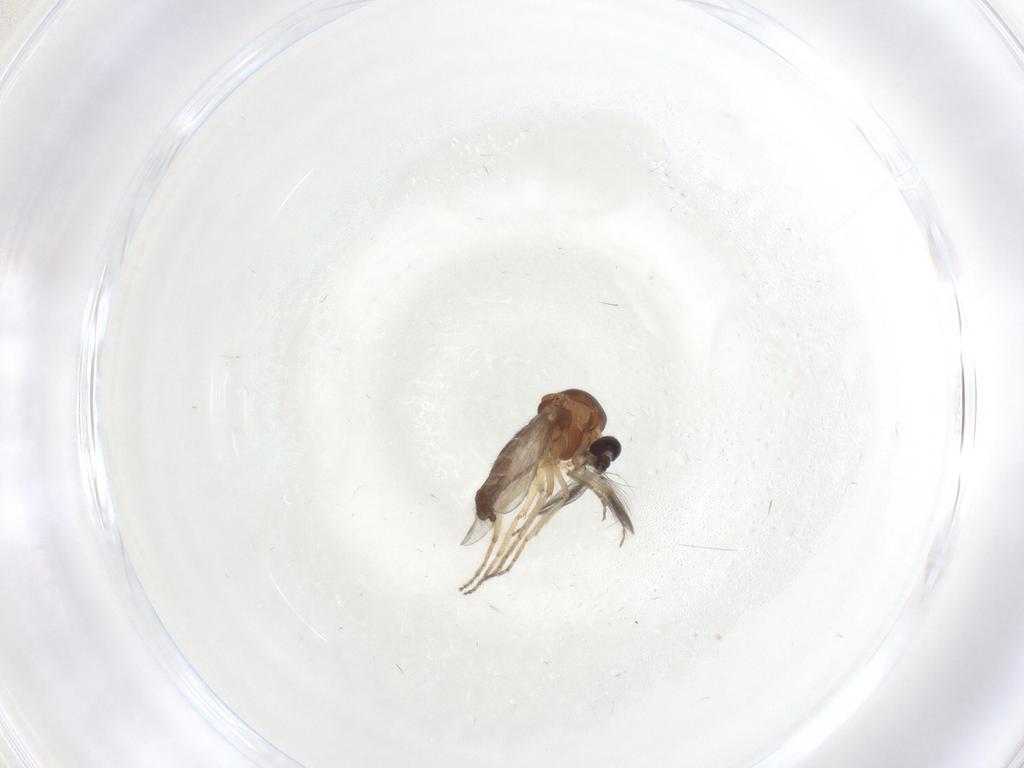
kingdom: Animalia
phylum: Arthropoda
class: Insecta
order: Diptera
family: Ceratopogonidae
